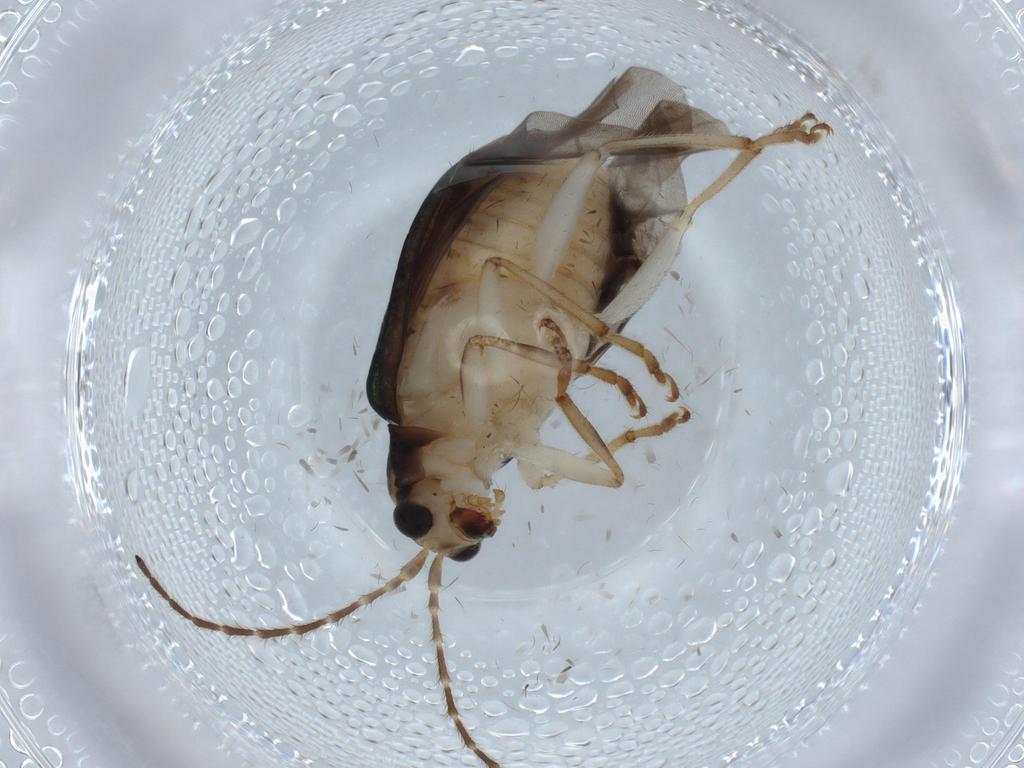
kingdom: Animalia
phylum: Arthropoda
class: Insecta
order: Coleoptera
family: Chrysomelidae
